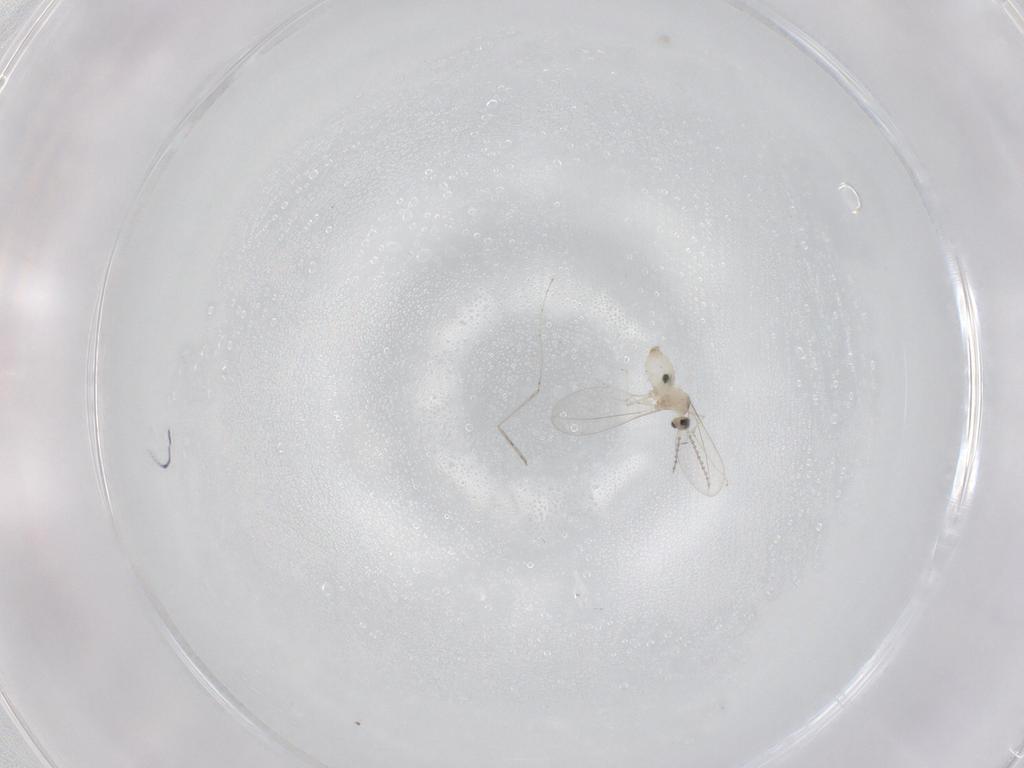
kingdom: Animalia
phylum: Arthropoda
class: Insecta
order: Diptera
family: Cecidomyiidae
